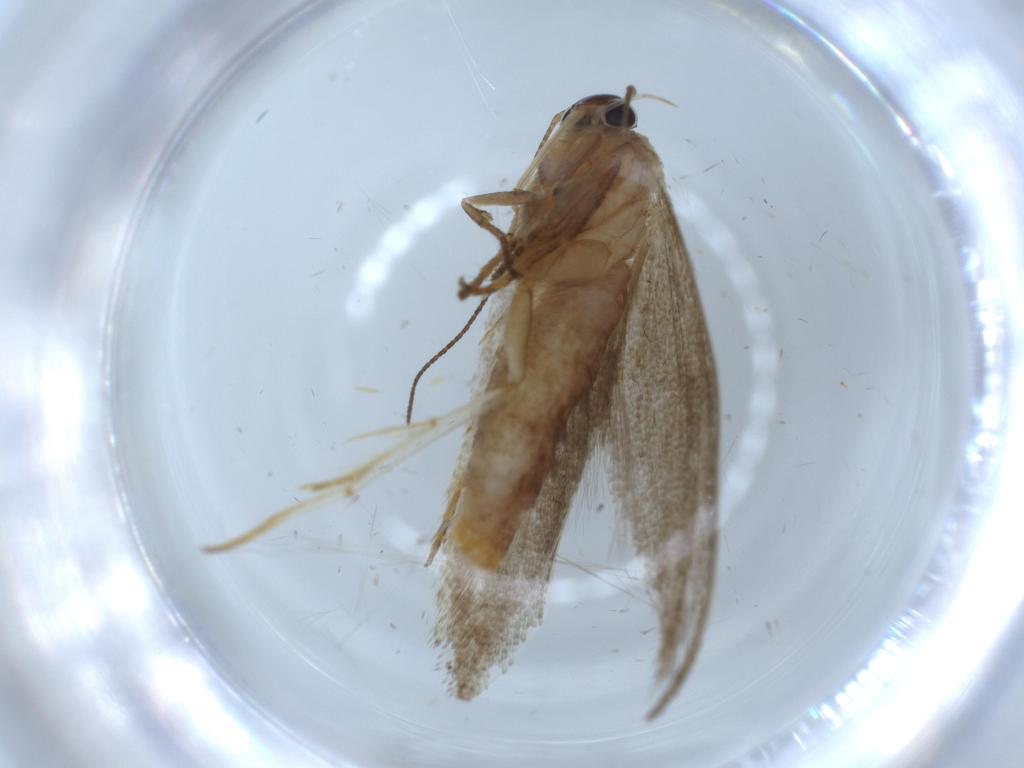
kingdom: Animalia
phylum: Arthropoda
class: Insecta
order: Lepidoptera
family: Oecophoridae
